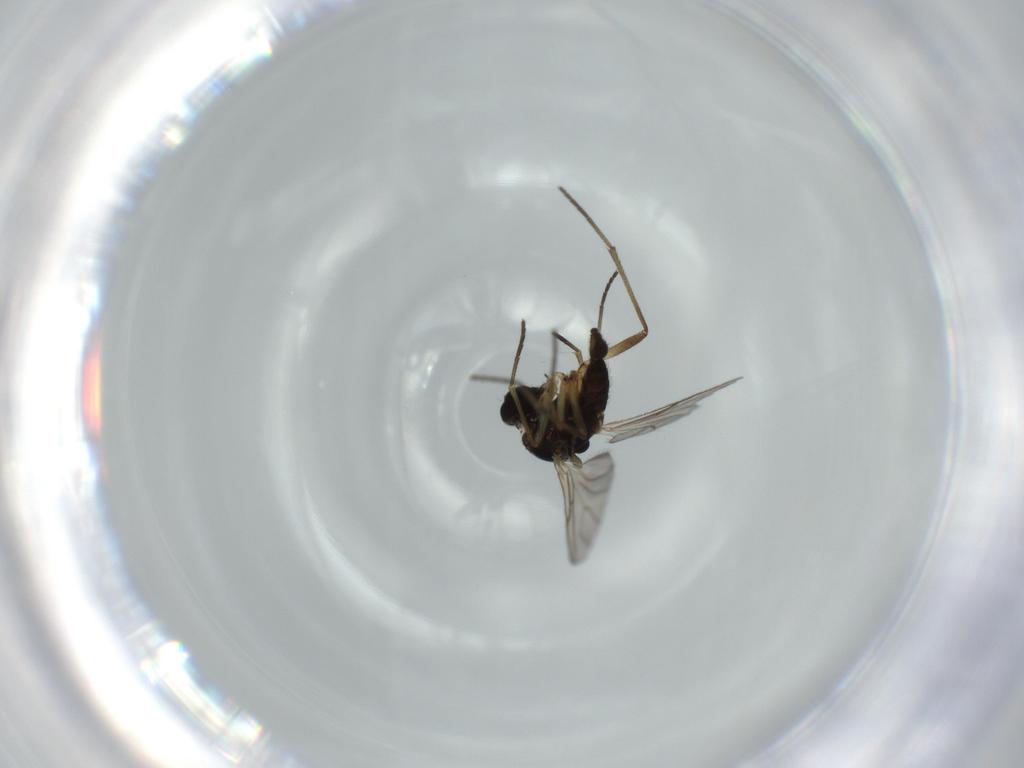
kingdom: Animalia
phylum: Arthropoda
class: Insecta
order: Diptera
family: Sciaridae
